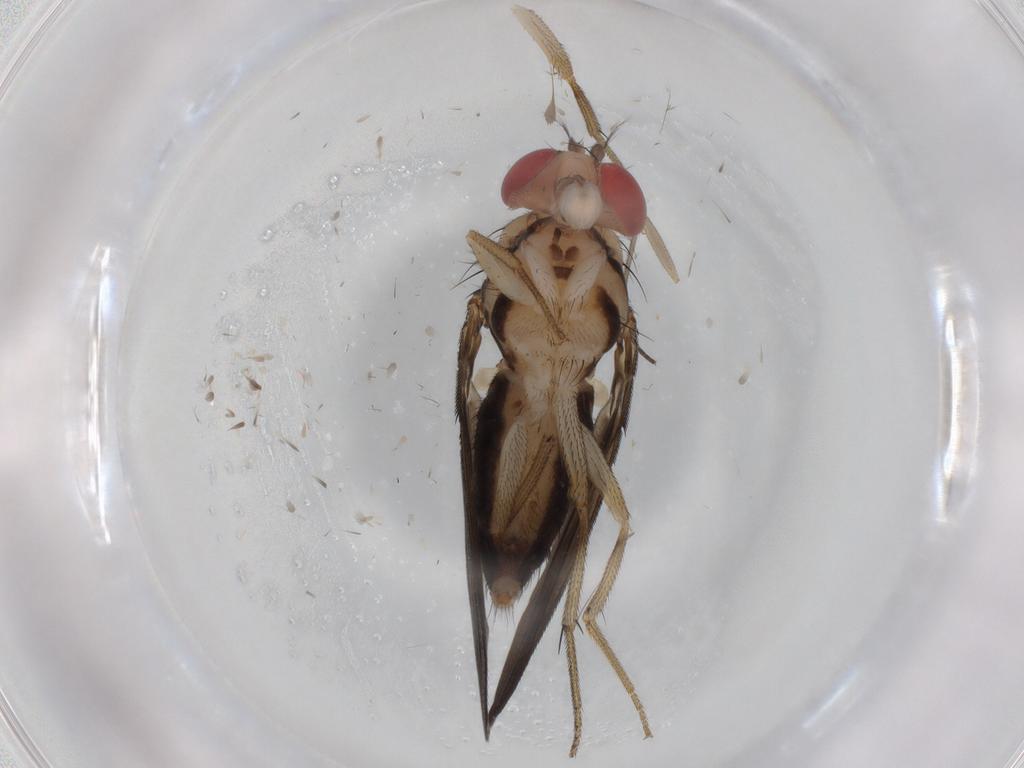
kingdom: Animalia
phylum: Arthropoda
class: Insecta
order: Diptera
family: Drosophilidae
